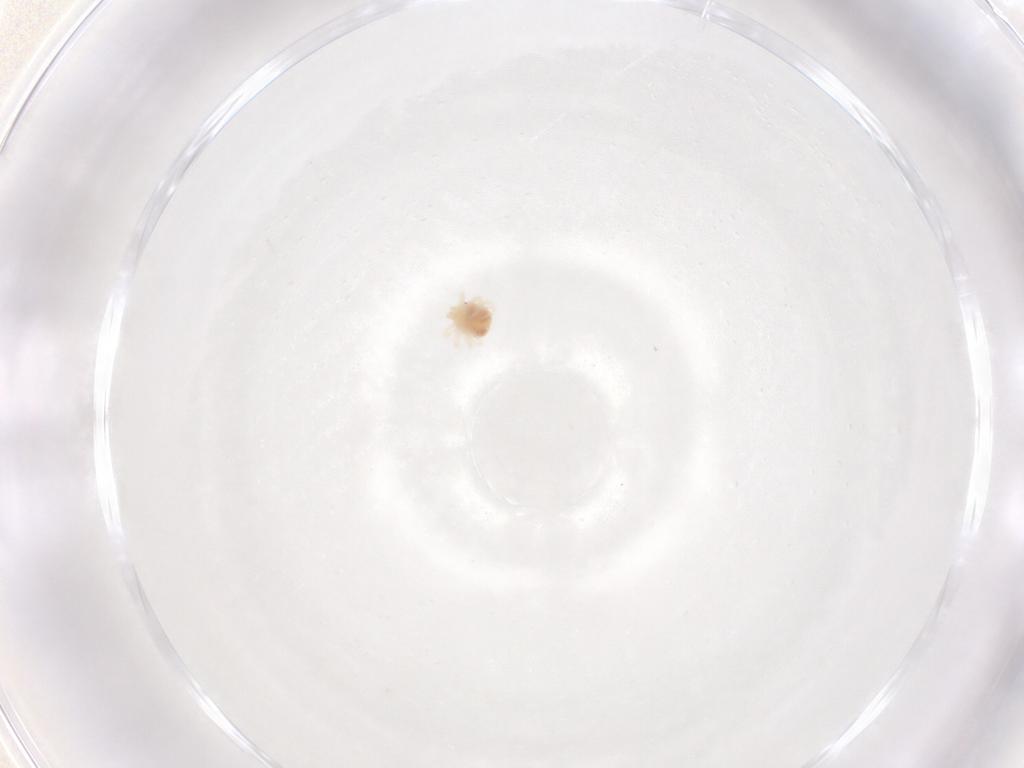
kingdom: Animalia
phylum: Arthropoda
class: Arachnida
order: Trombidiformes
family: Anystidae
